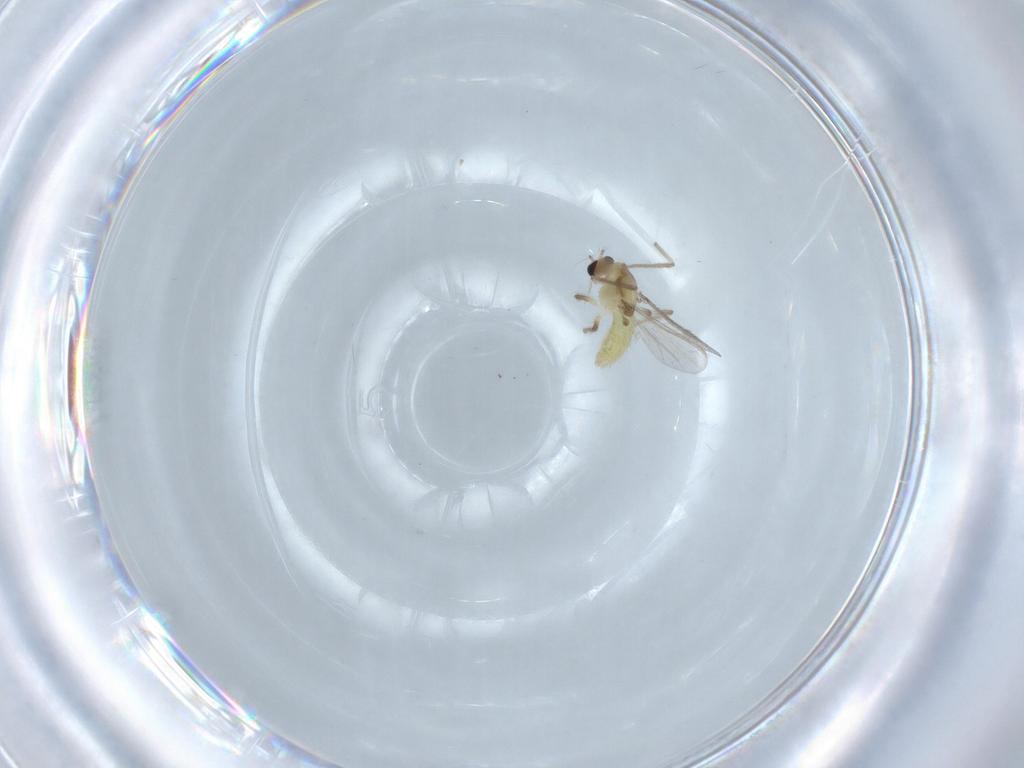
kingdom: Animalia
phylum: Arthropoda
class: Insecta
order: Diptera
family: Chironomidae
